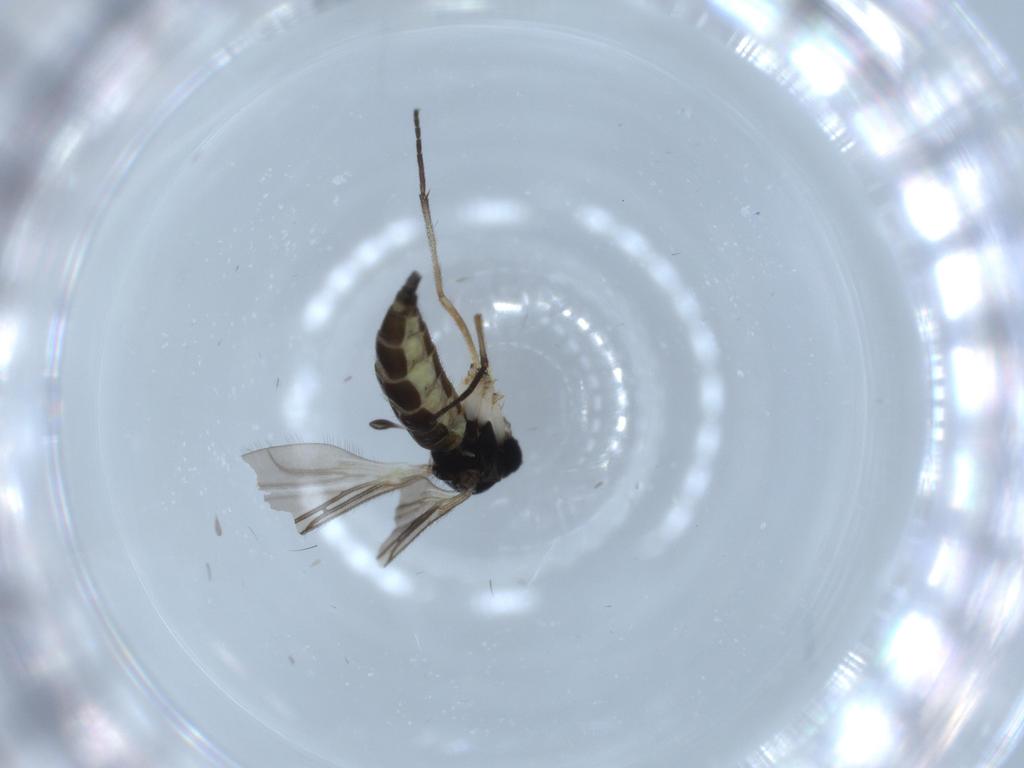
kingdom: Animalia
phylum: Arthropoda
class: Insecta
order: Diptera
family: Sciaridae
